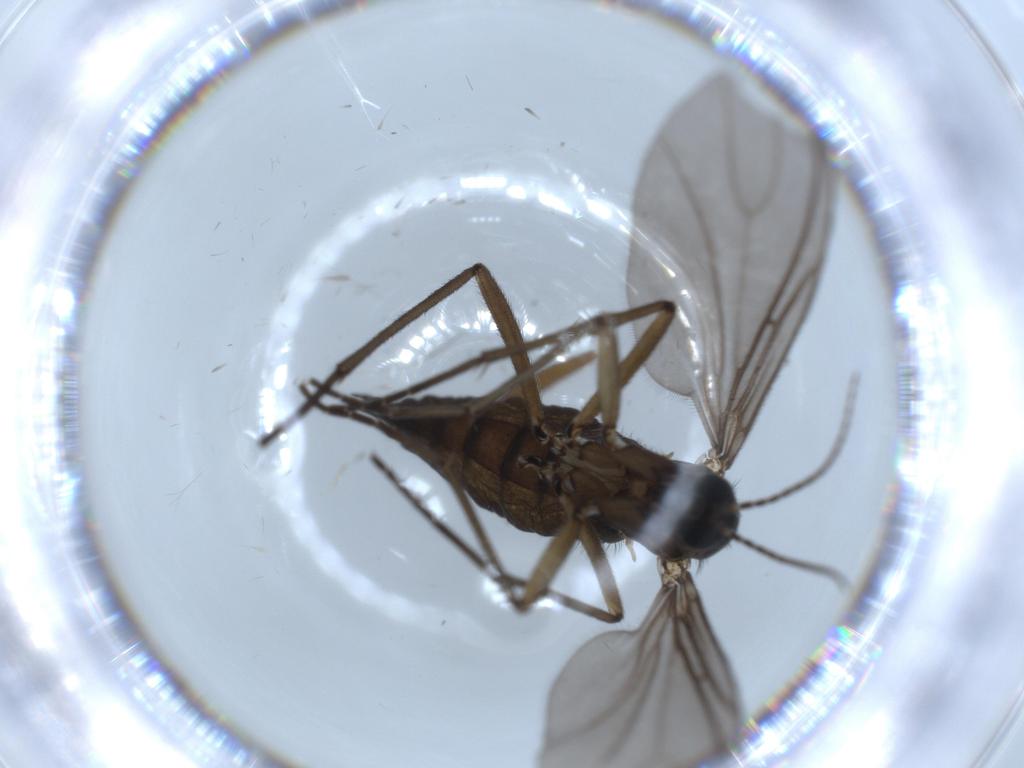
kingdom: Animalia
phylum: Arthropoda
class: Insecta
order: Diptera
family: Sciaridae
